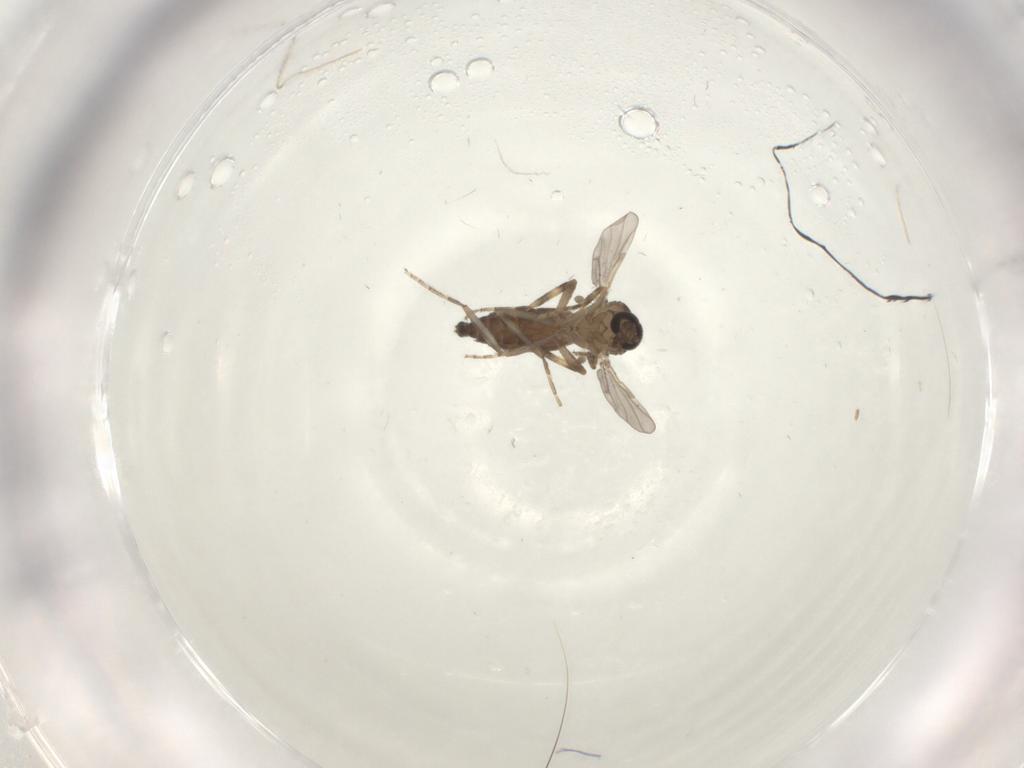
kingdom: Animalia
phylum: Arthropoda
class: Insecta
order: Diptera
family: Ceratopogonidae
